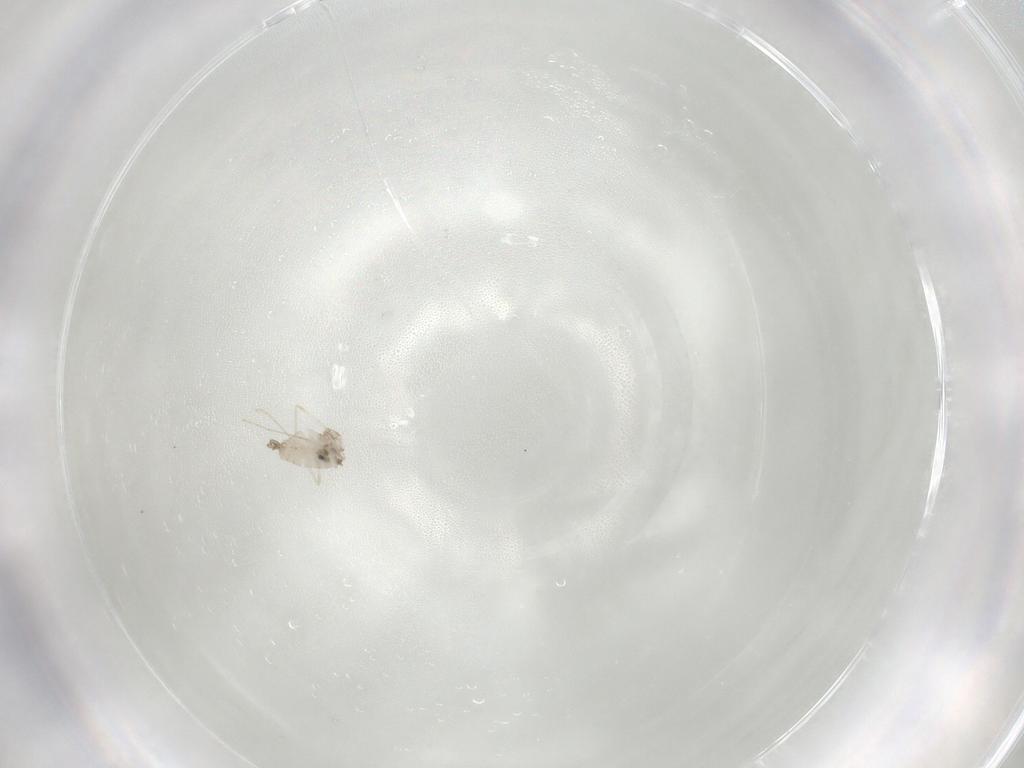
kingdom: Animalia
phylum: Arthropoda
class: Insecta
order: Diptera
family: Cecidomyiidae
